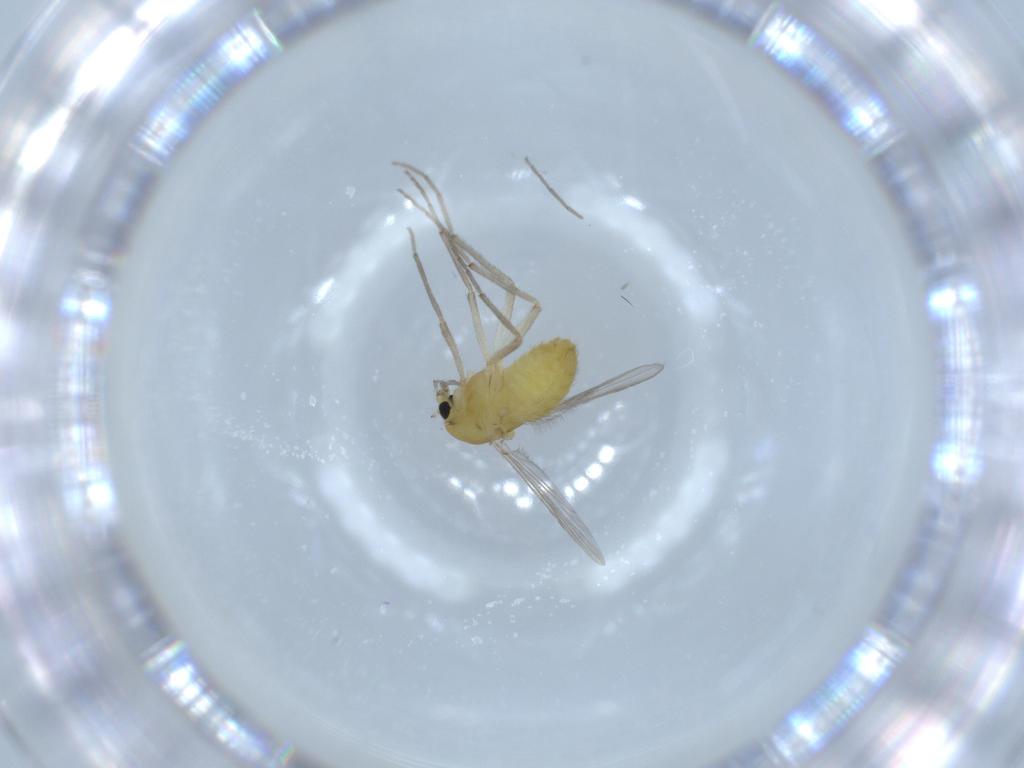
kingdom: Animalia
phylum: Arthropoda
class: Insecta
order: Diptera
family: Chironomidae
